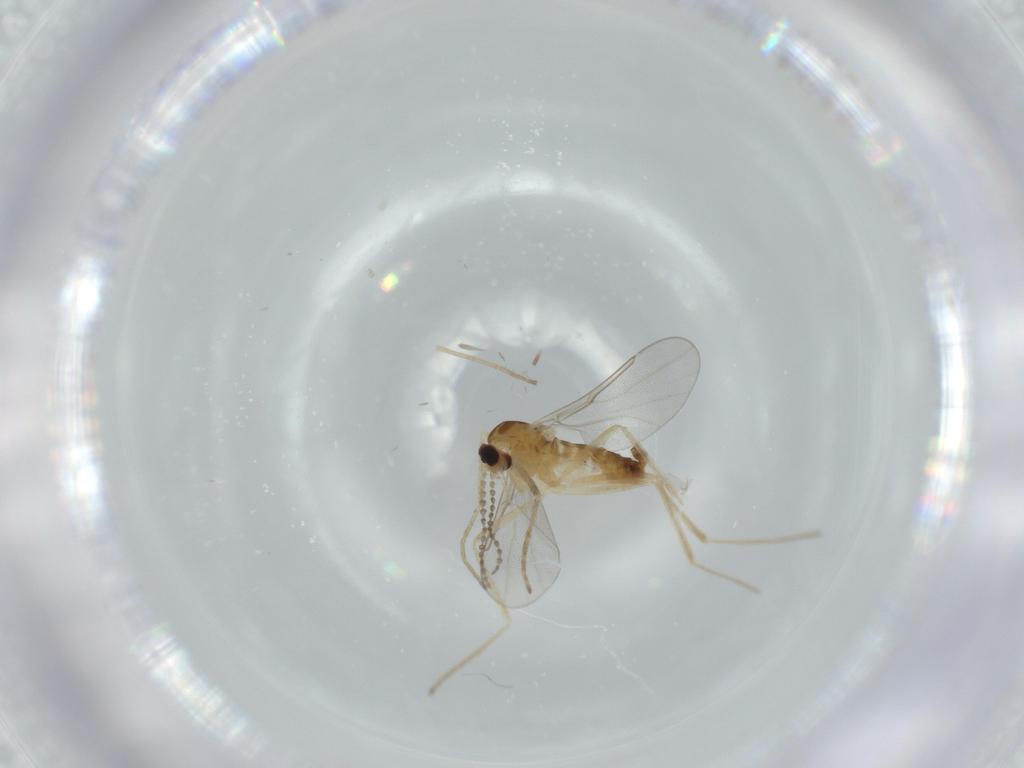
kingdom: Animalia
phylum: Arthropoda
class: Insecta
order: Diptera
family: Cecidomyiidae
